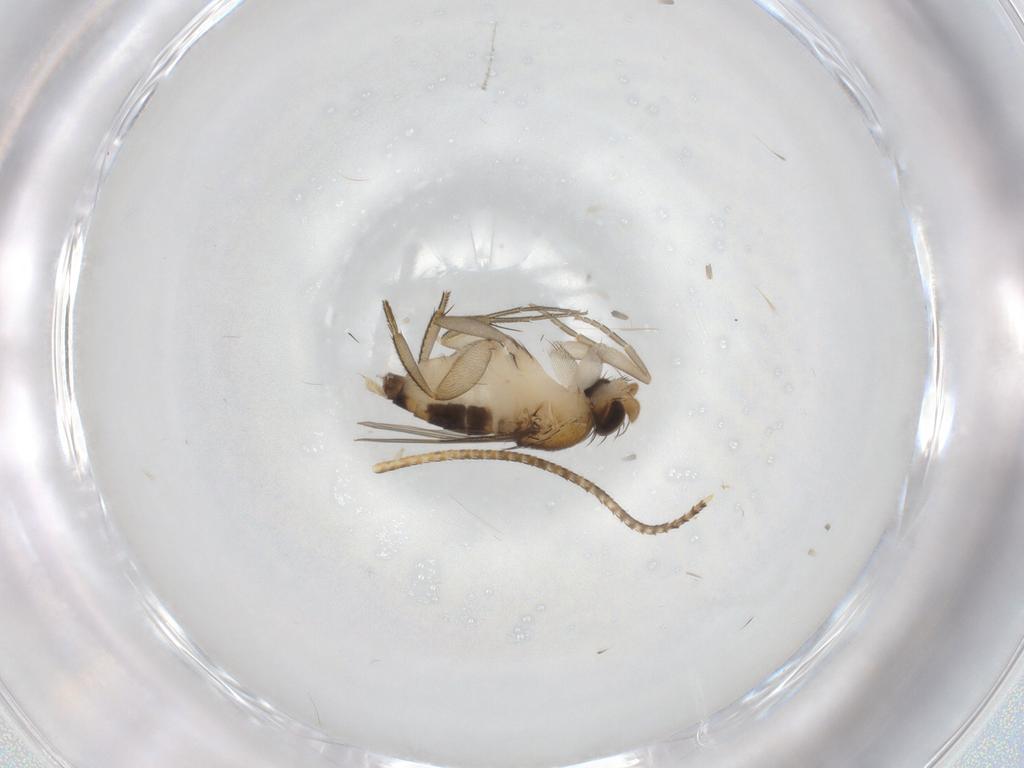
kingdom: Animalia
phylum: Arthropoda
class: Insecta
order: Diptera
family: Phoridae
